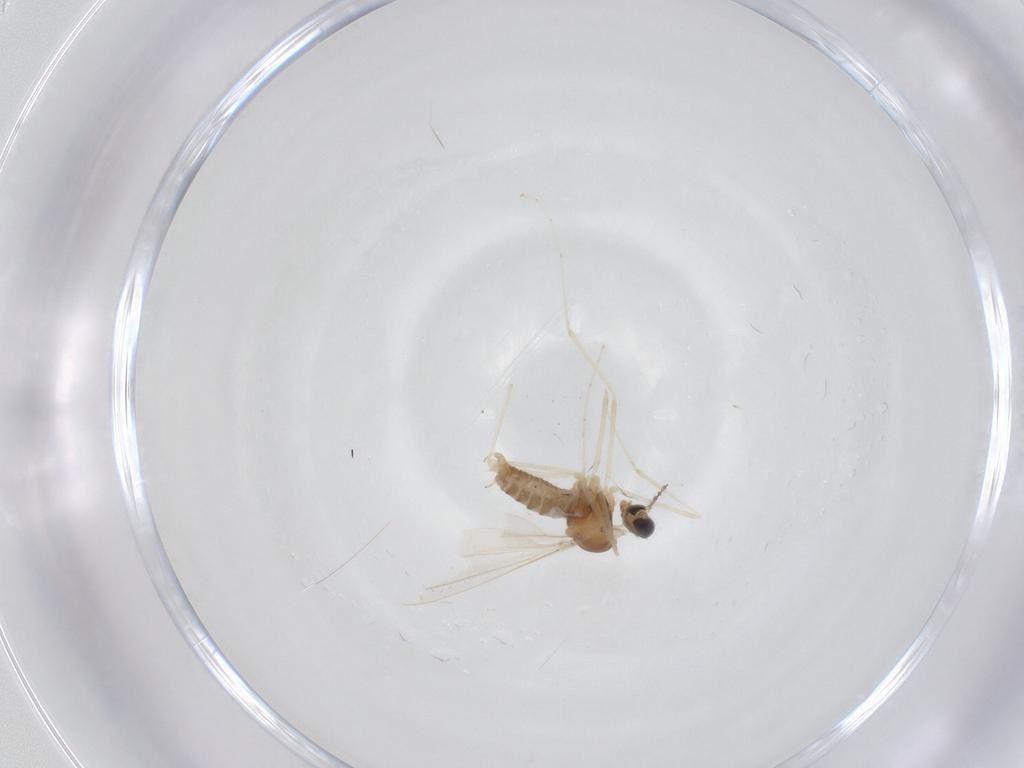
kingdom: Animalia
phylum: Arthropoda
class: Insecta
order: Diptera
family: Cecidomyiidae
